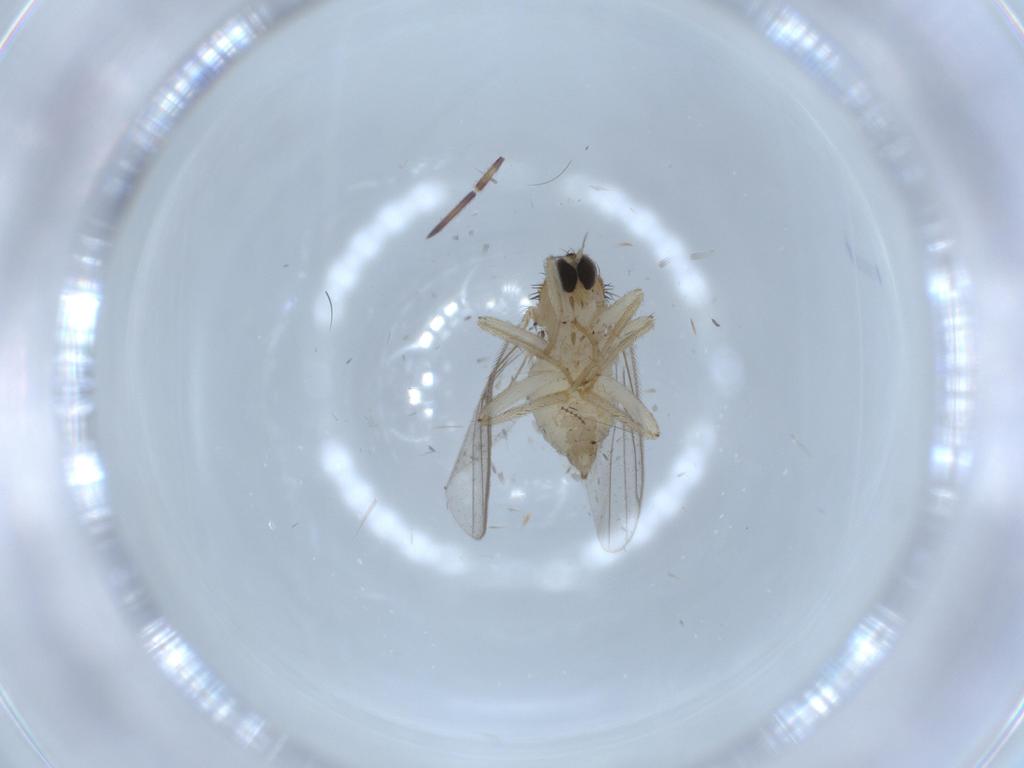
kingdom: Animalia
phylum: Arthropoda
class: Insecta
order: Diptera
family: Hybotidae
